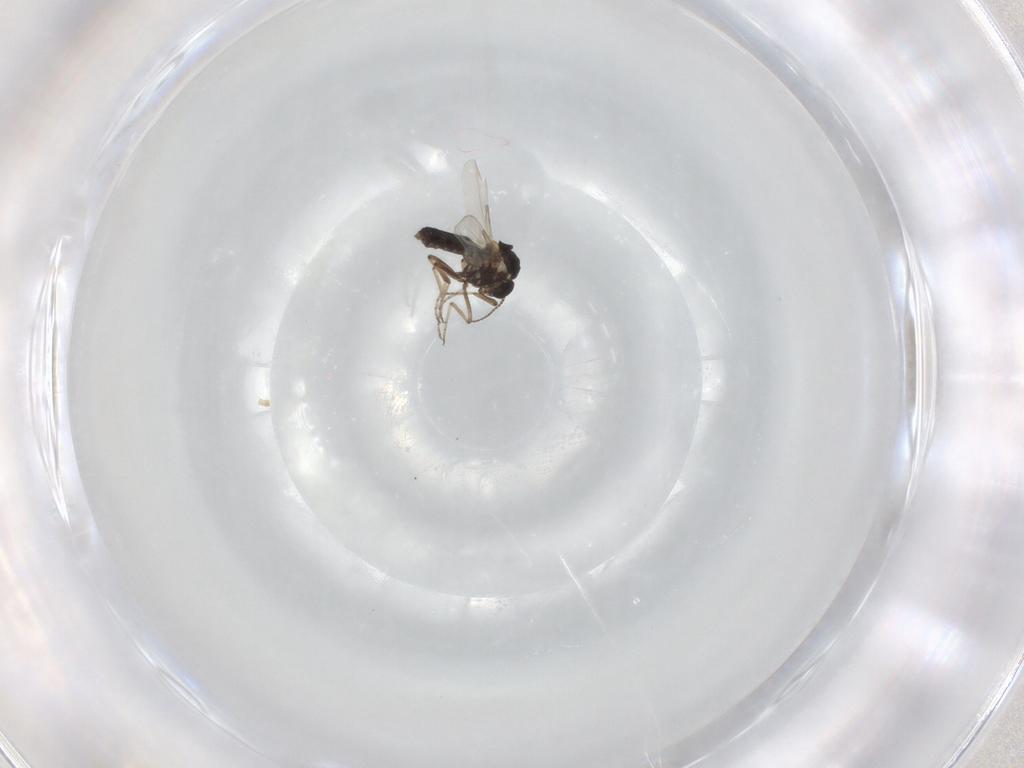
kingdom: Animalia
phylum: Arthropoda
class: Insecta
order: Diptera
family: Ceratopogonidae
